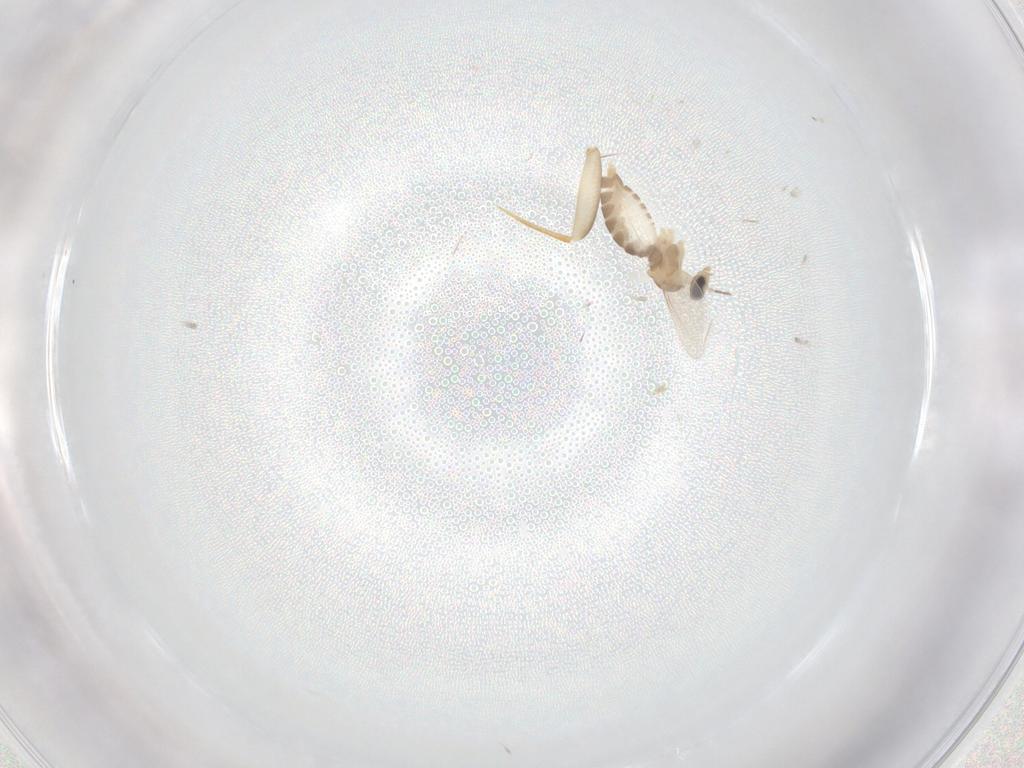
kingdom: Animalia
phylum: Arthropoda
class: Insecta
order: Diptera
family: Cecidomyiidae
